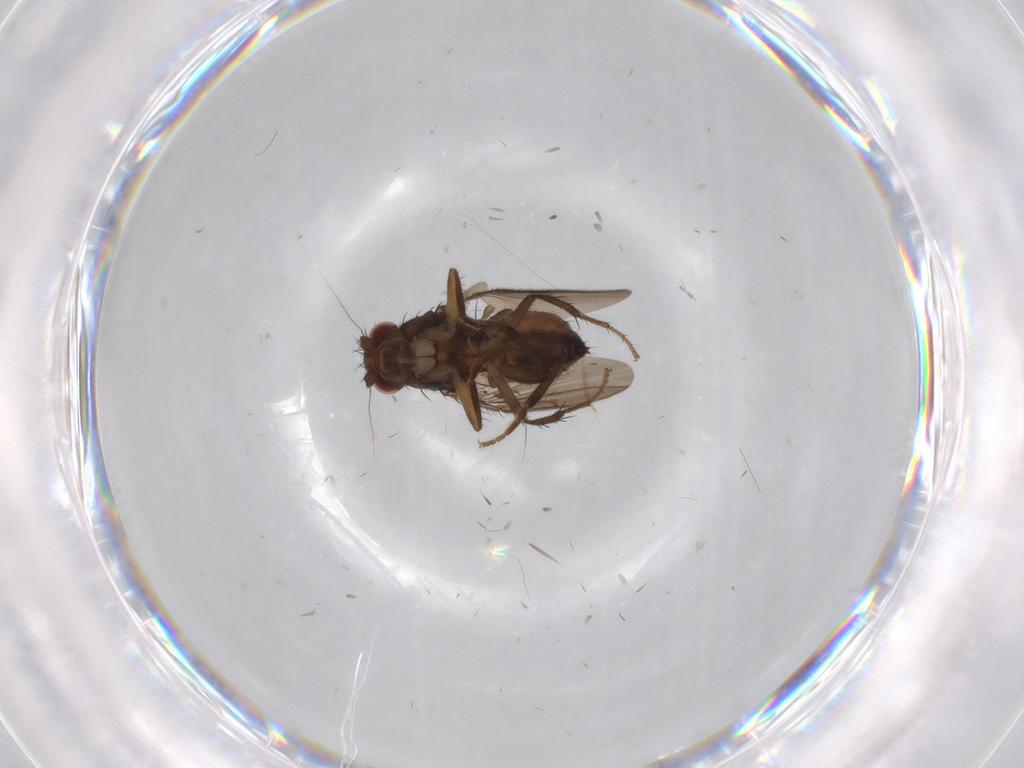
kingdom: Animalia
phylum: Arthropoda
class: Insecta
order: Diptera
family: Sphaeroceridae
